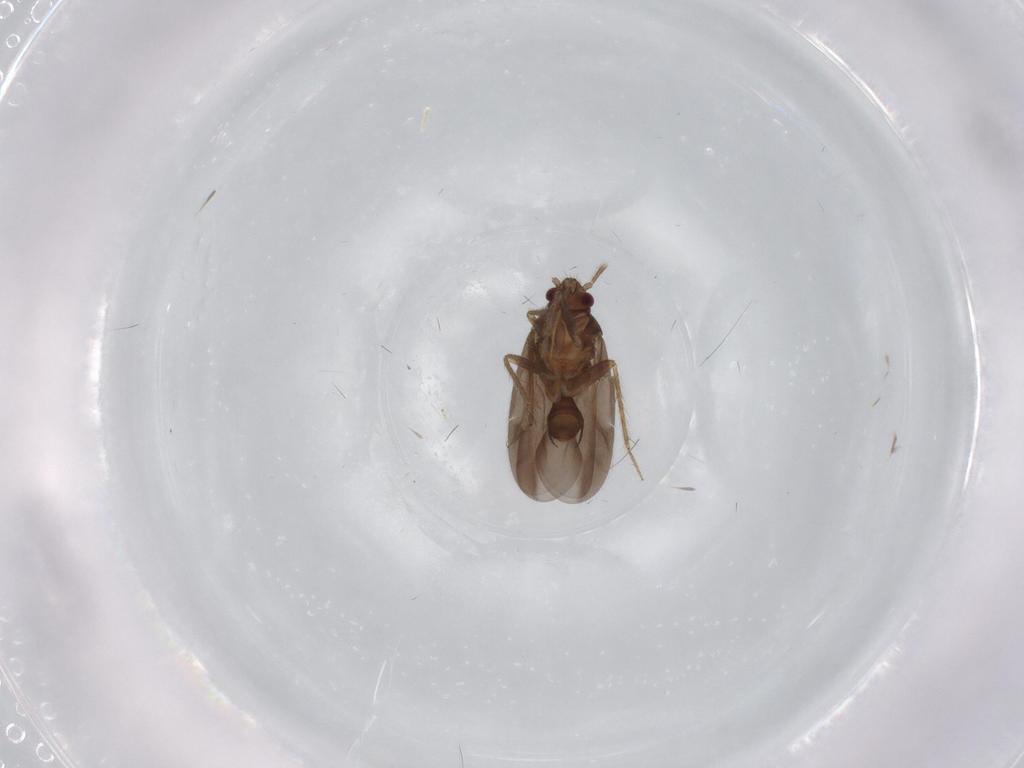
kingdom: Animalia
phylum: Arthropoda
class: Insecta
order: Hemiptera
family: Ceratocombidae
